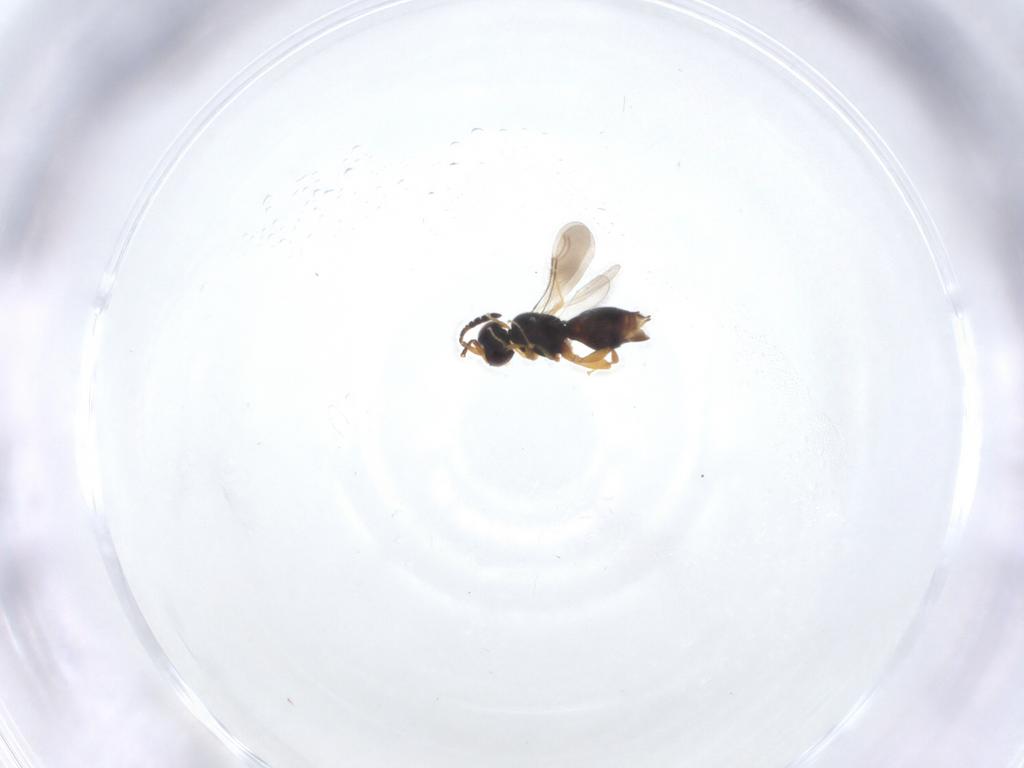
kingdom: Animalia
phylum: Arthropoda
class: Insecta
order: Hymenoptera
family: Ceraphronidae
